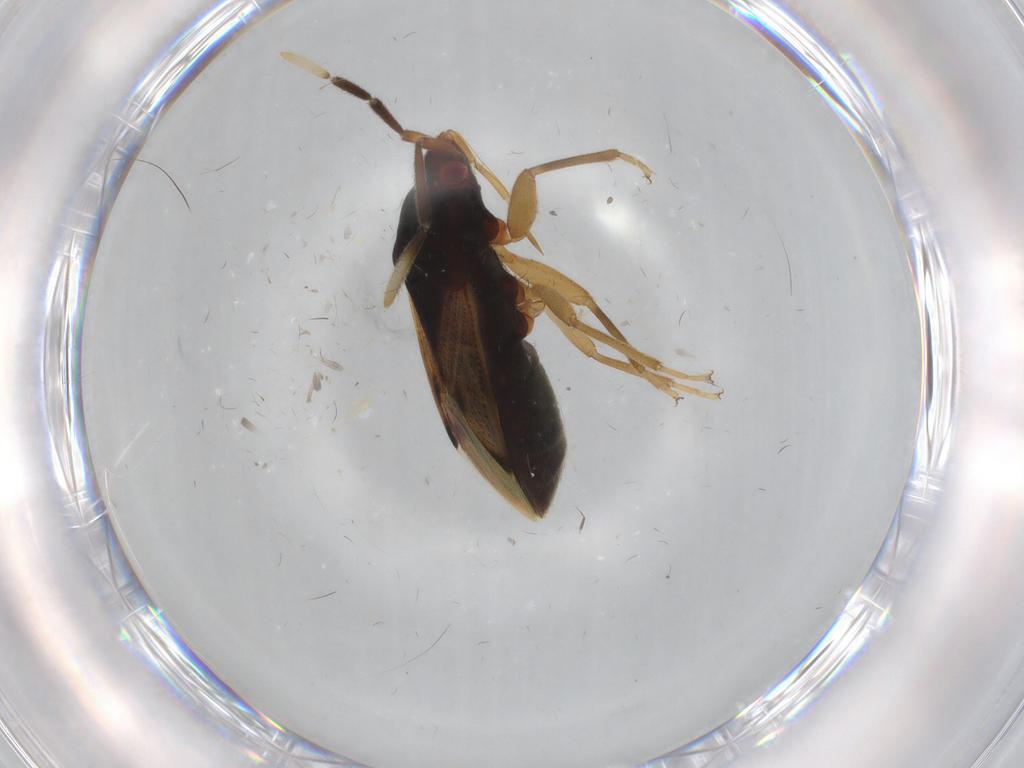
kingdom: Animalia
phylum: Arthropoda
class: Insecta
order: Hemiptera
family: Rhyparochromidae
